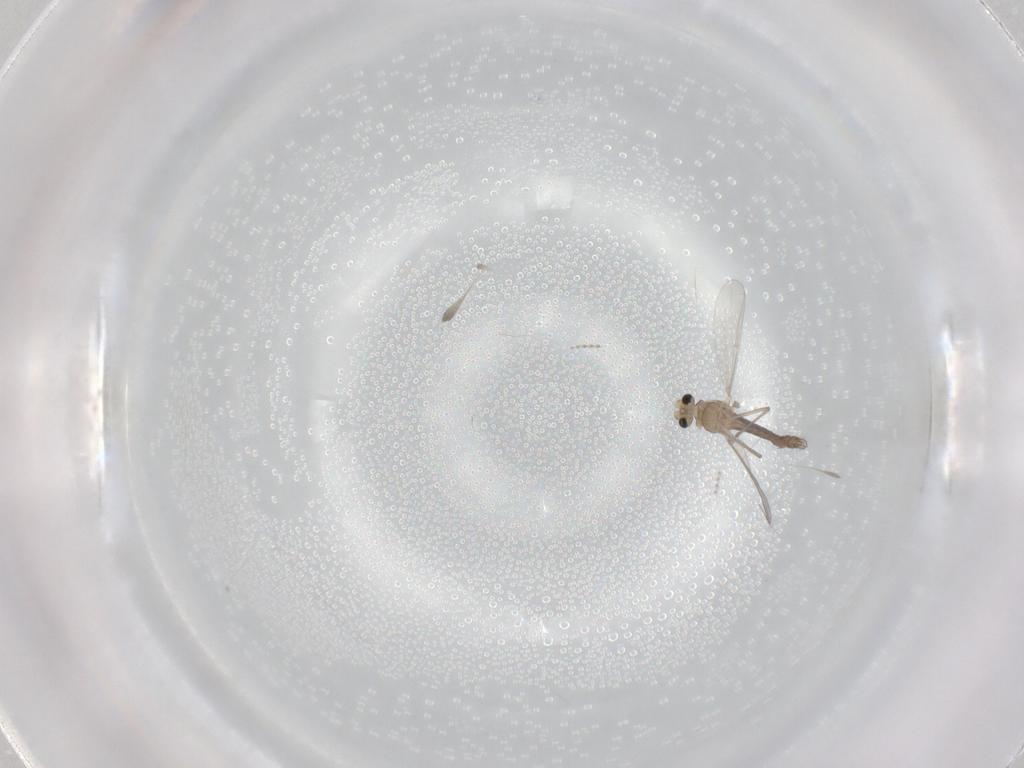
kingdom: Animalia
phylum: Arthropoda
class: Insecta
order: Diptera
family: Chironomidae
